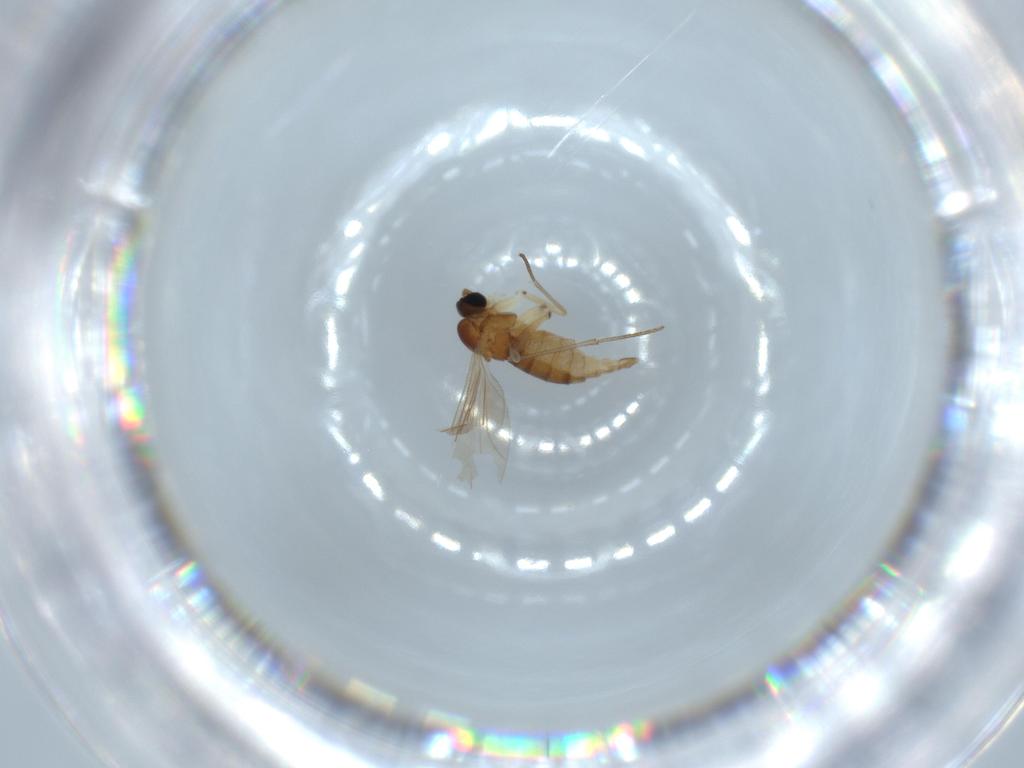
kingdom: Animalia
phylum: Arthropoda
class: Insecta
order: Diptera
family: Sciaridae
